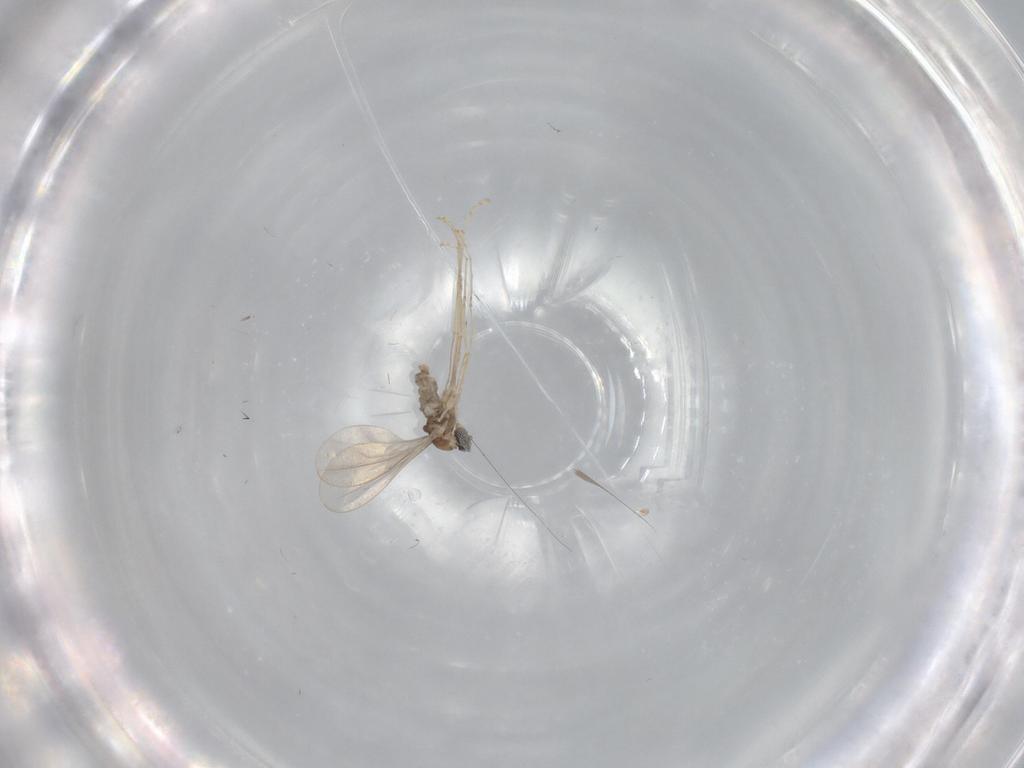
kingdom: Animalia
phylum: Arthropoda
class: Insecta
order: Diptera
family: Cecidomyiidae
